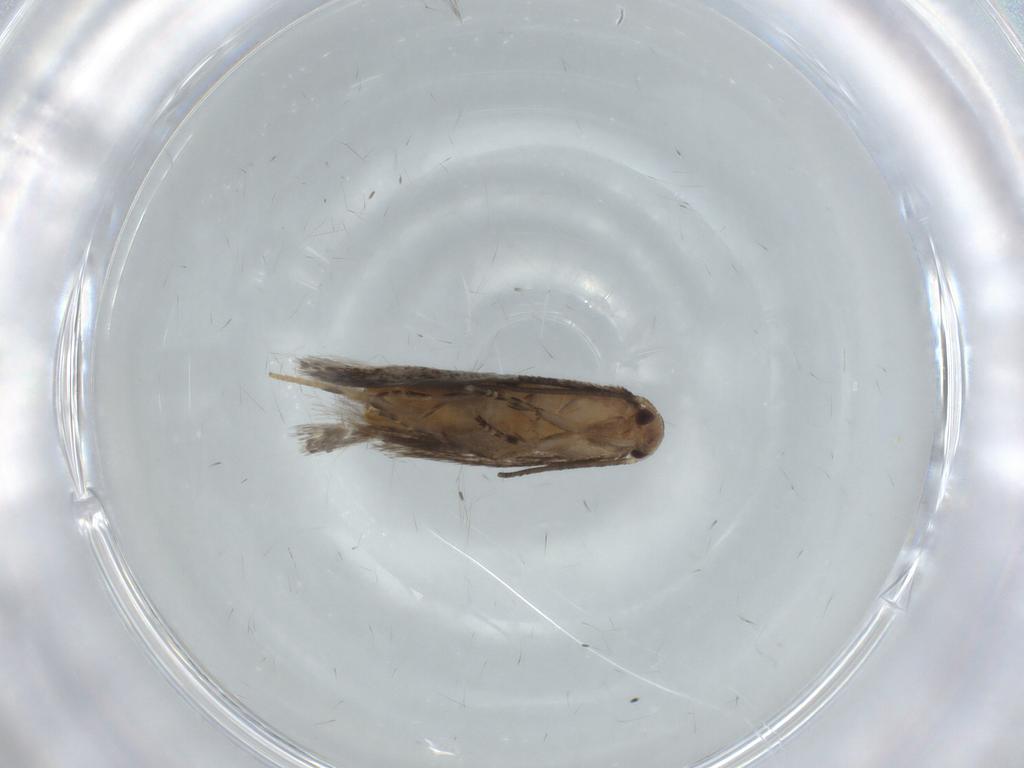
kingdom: Animalia
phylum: Arthropoda
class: Insecta
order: Lepidoptera
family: Elachistidae
